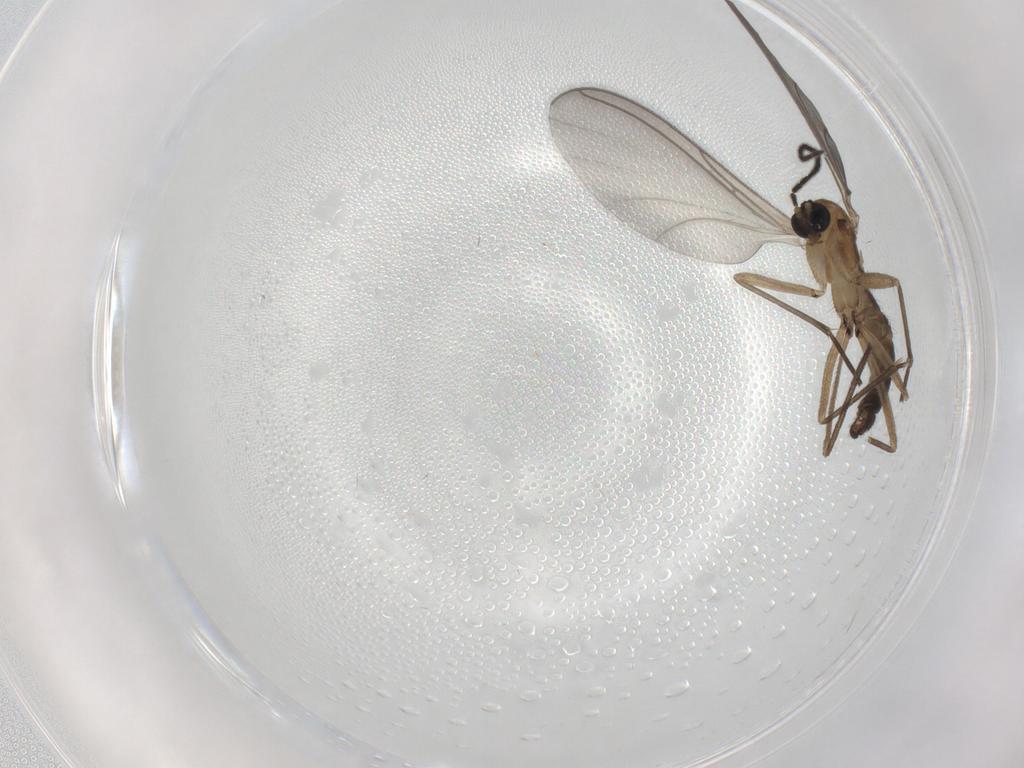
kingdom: Animalia
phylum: Arthropoda
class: Insecta
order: Diptera
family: Sciaridae
